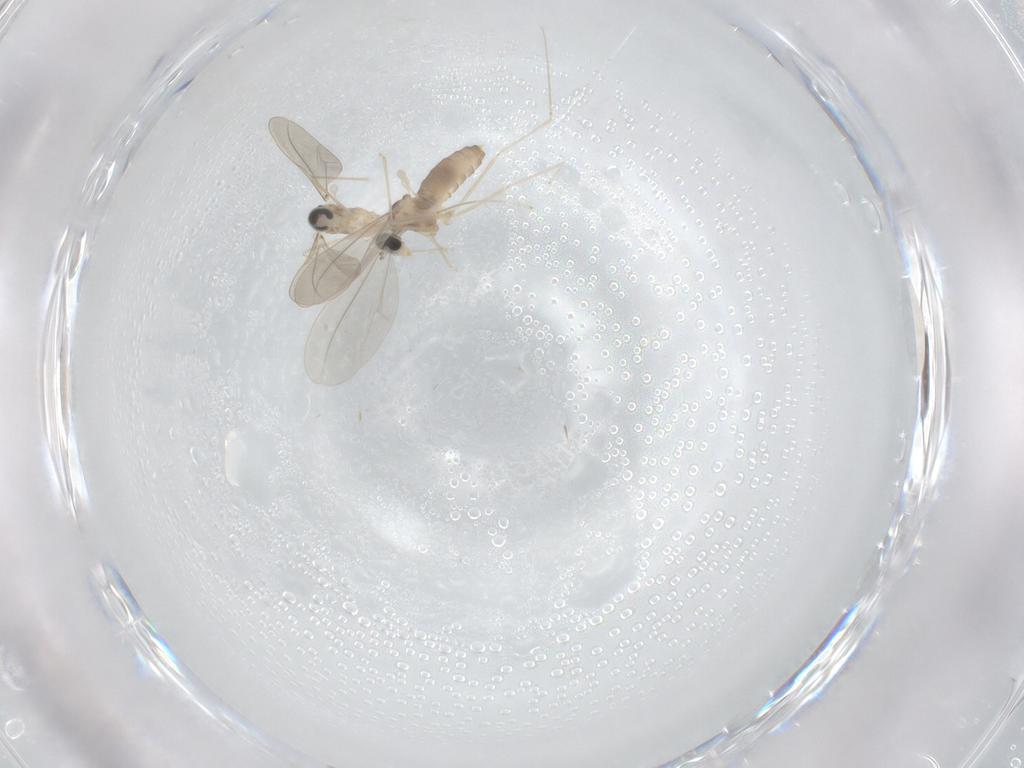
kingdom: Animalia
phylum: Arthropoda
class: Insecta
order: Diptera
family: Cecidomyiidae
